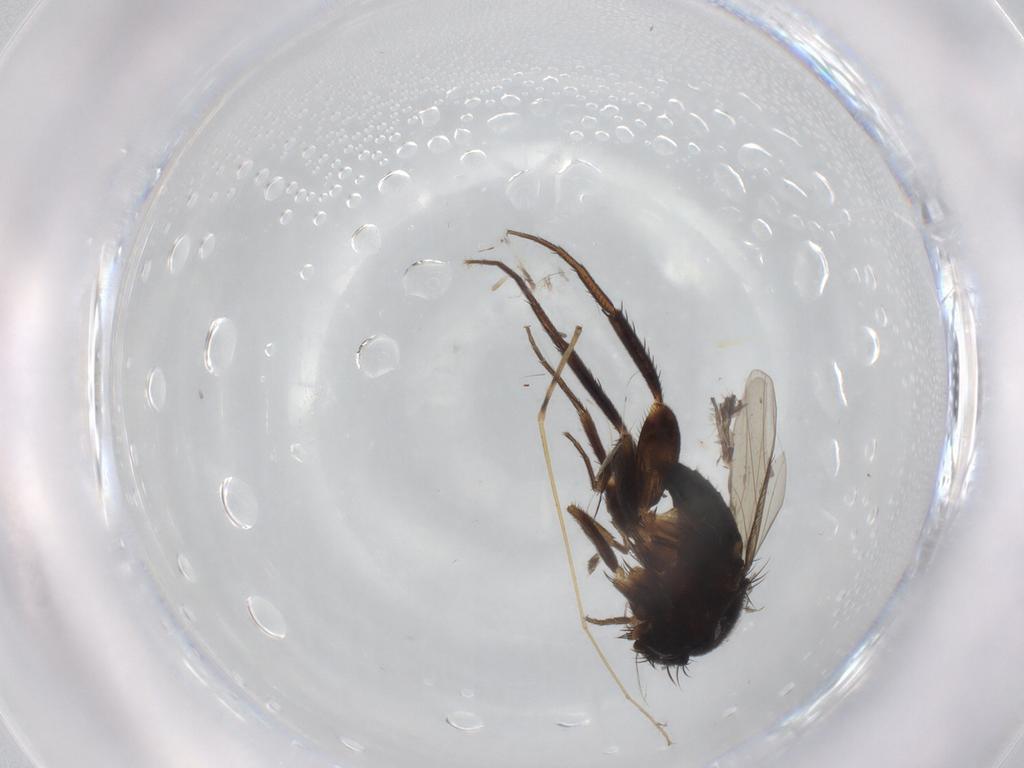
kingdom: Animalia
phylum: Arthropoda
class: Insecta
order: Diptera
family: Phoridae
